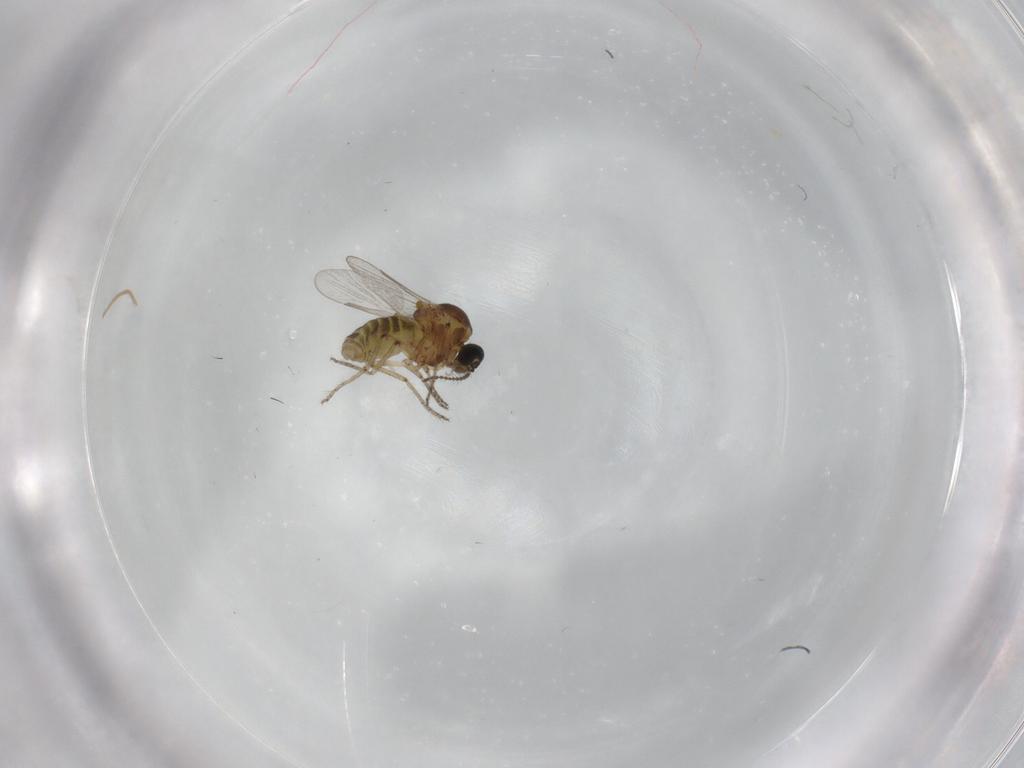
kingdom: Animalia
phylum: Arthropoda
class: Insecta
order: Diptera
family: Ceratopogonidae
